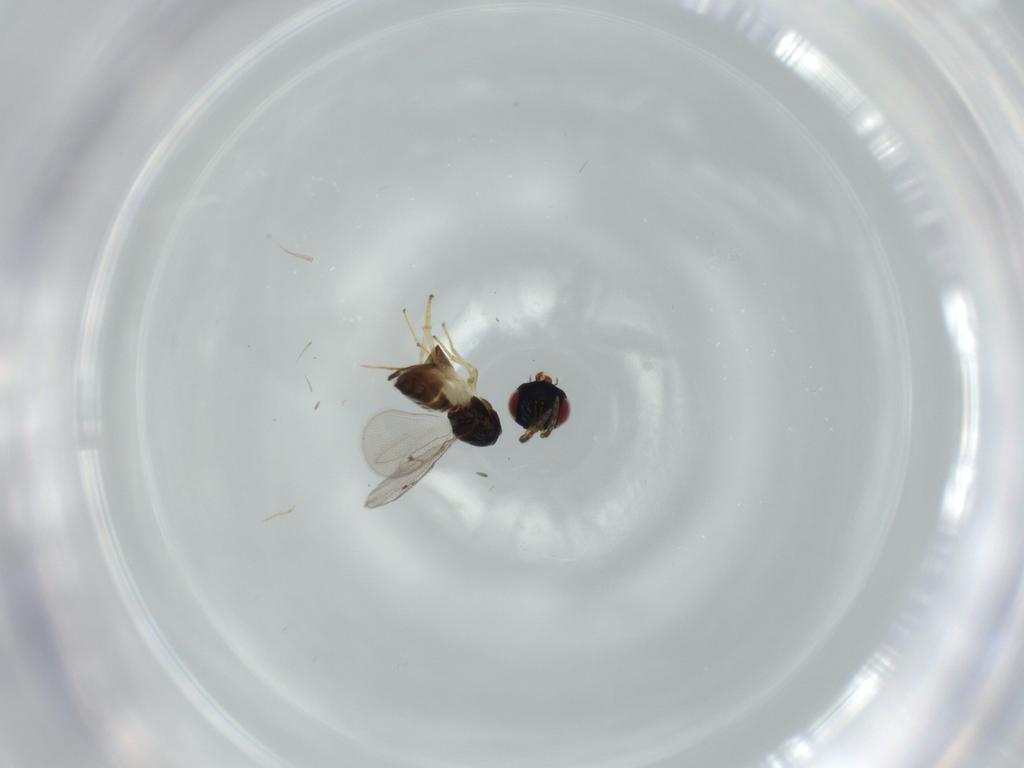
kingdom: Animalia
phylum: Arthropoda
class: Insecta
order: Hymenoptera
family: Pteromalidae
